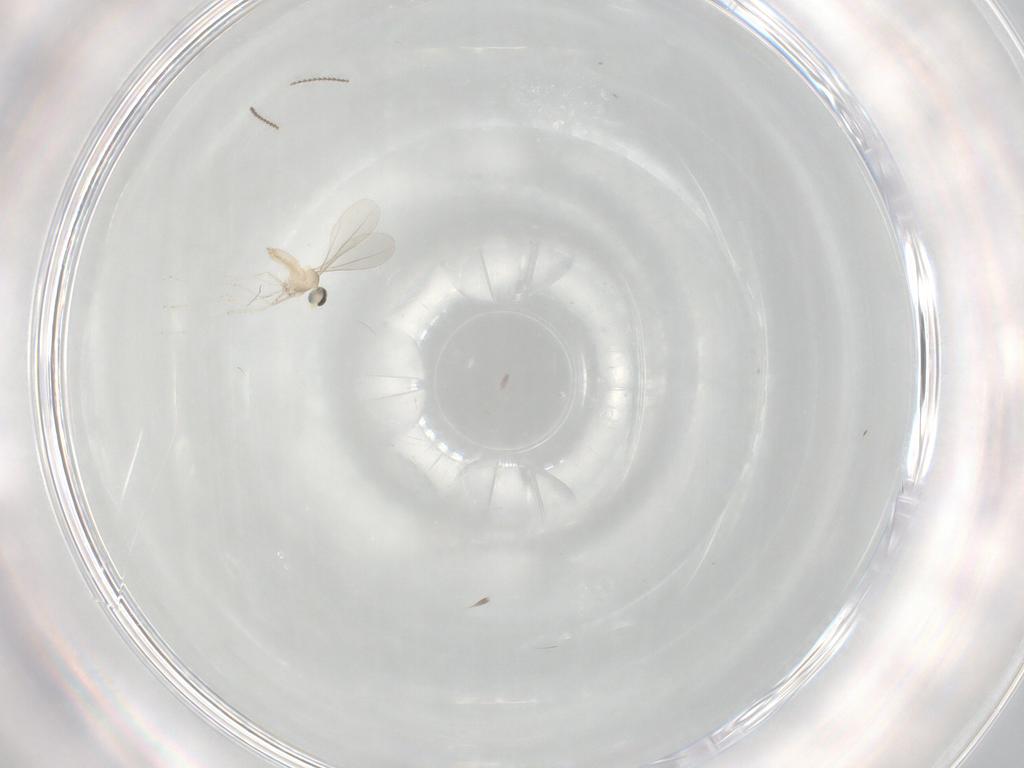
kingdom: Animalia
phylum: Arthropoda
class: Insecta
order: Diptera
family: Cecidomyiidae
